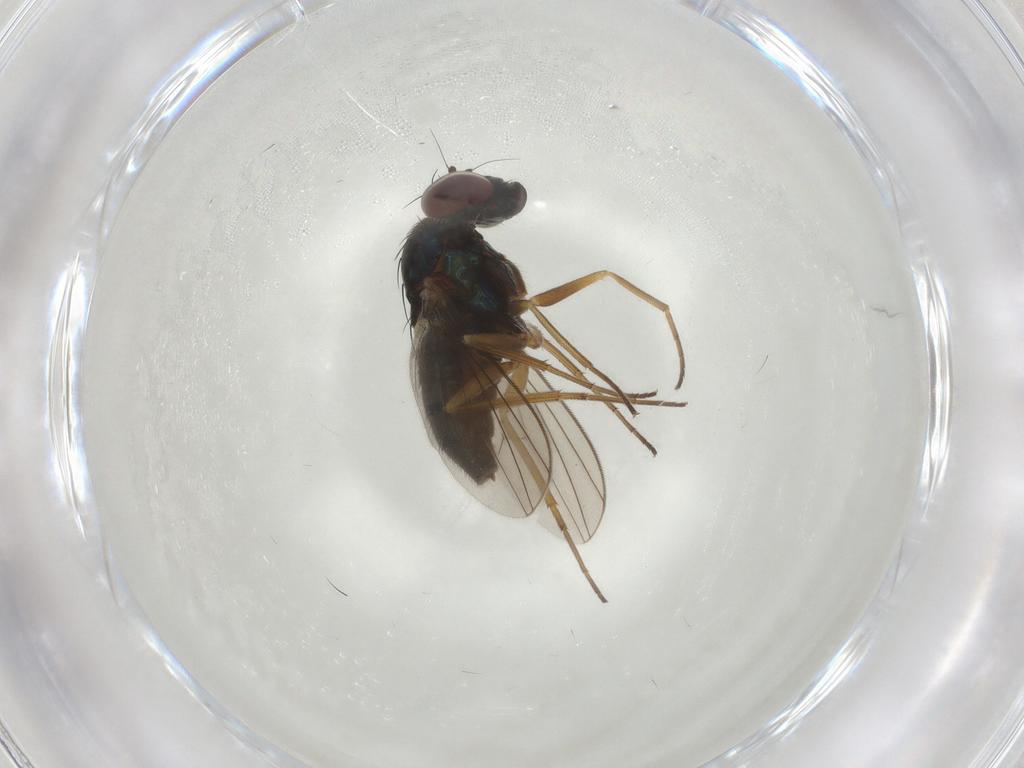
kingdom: Animalia
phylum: Arthropoda
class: Insecta
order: Diptera
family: Dolichopodidae
